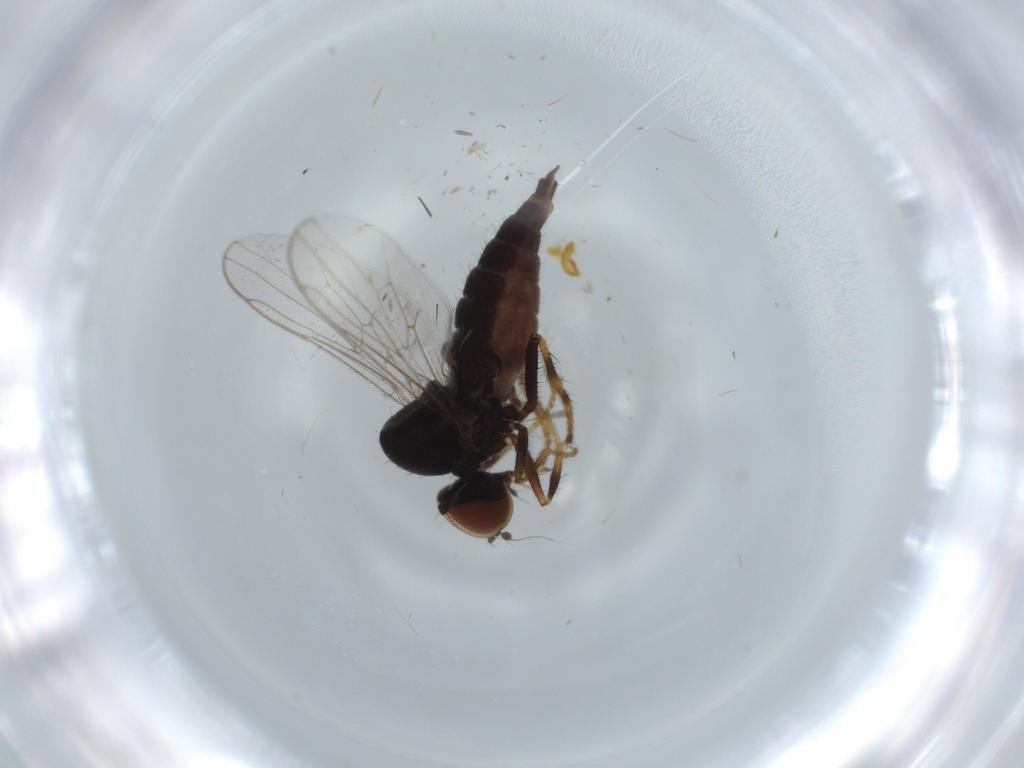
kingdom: Animalia
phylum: Arthropoda
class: Insecta
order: Diptera
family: Hybotidae
